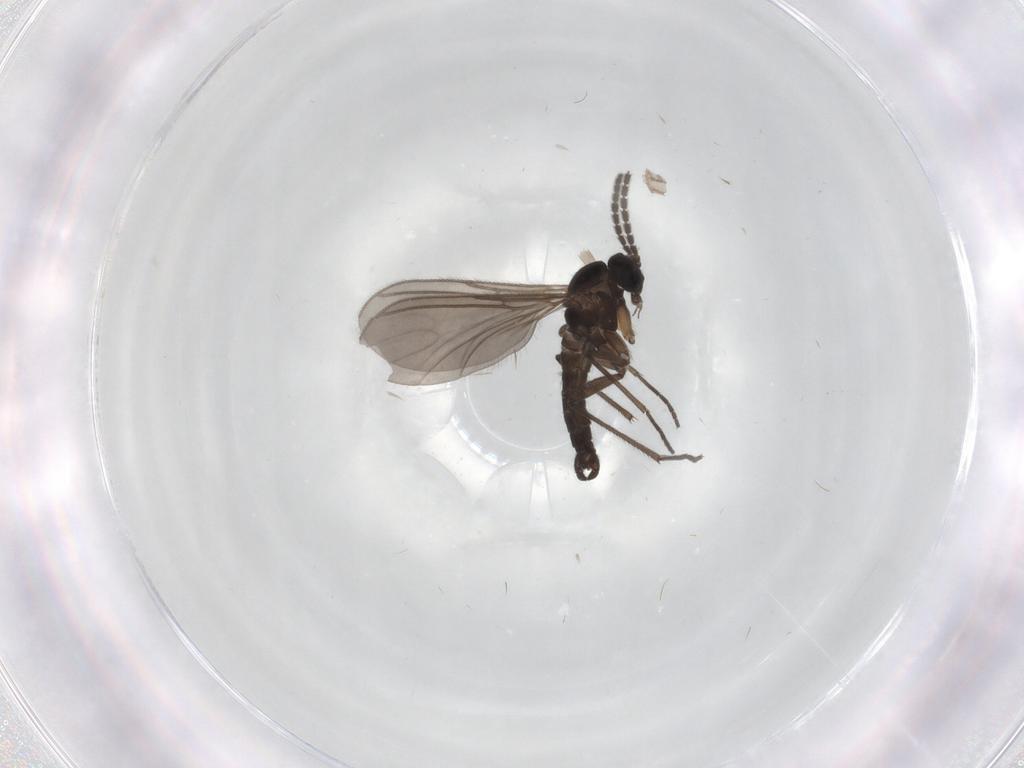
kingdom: Animalia
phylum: Arthropoda
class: Insecta
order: Diptera
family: Chironomidae
